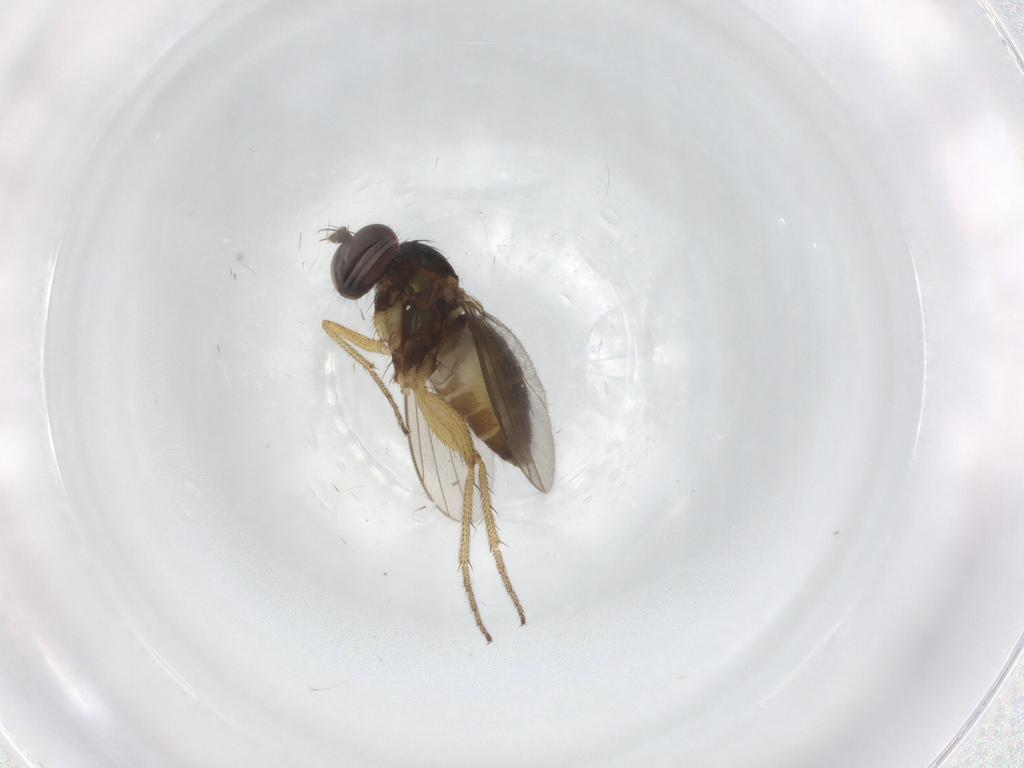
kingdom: Animalia
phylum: Arthropoda
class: Insecta
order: Diptera
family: Dolichopodidae
